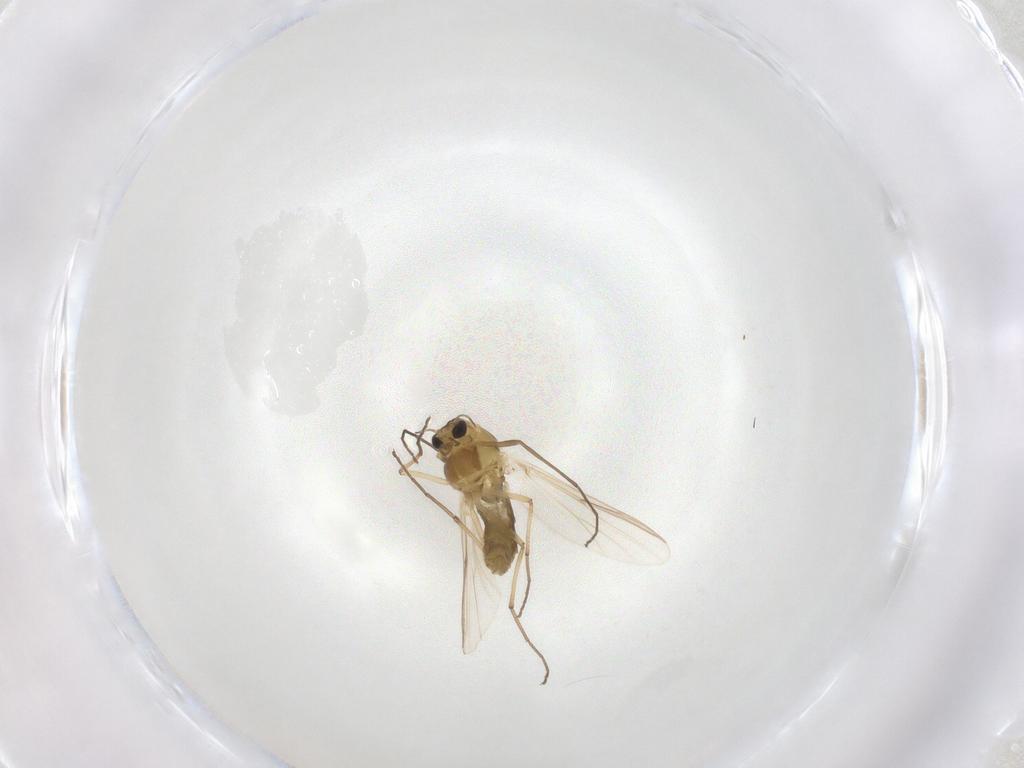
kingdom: Animalia
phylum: Arthropoda
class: Insecta
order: Diptera
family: Chironomidae
